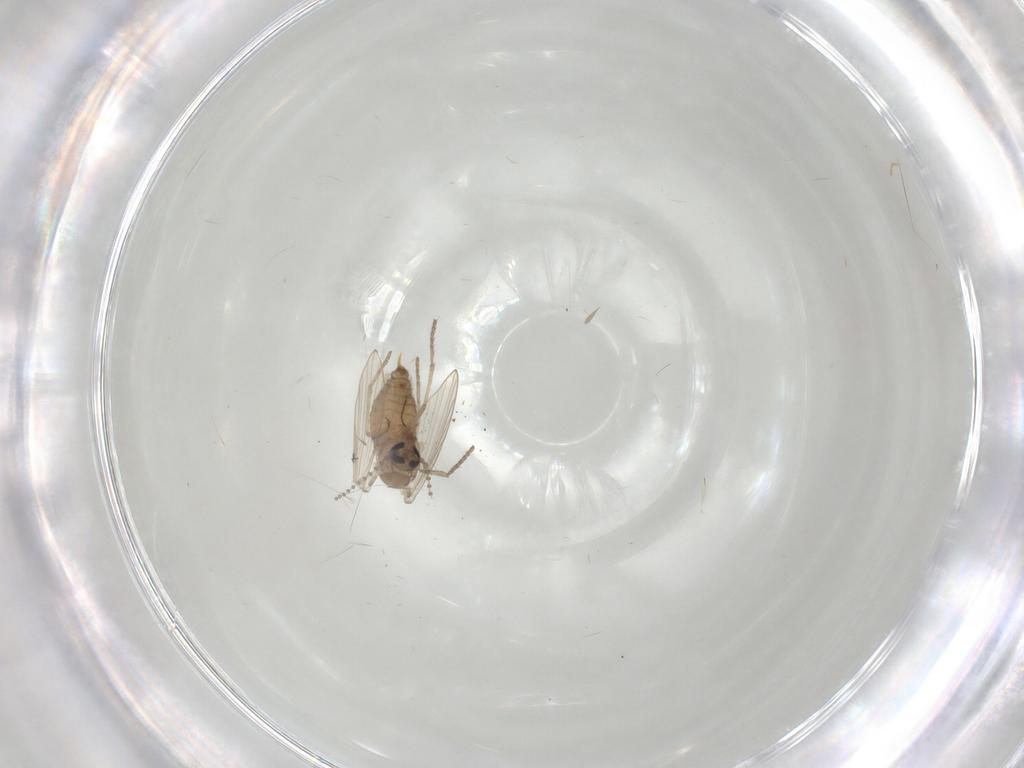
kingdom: Animalia
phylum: Arthropoda
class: Insecta
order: Diptera
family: Psychodidae
